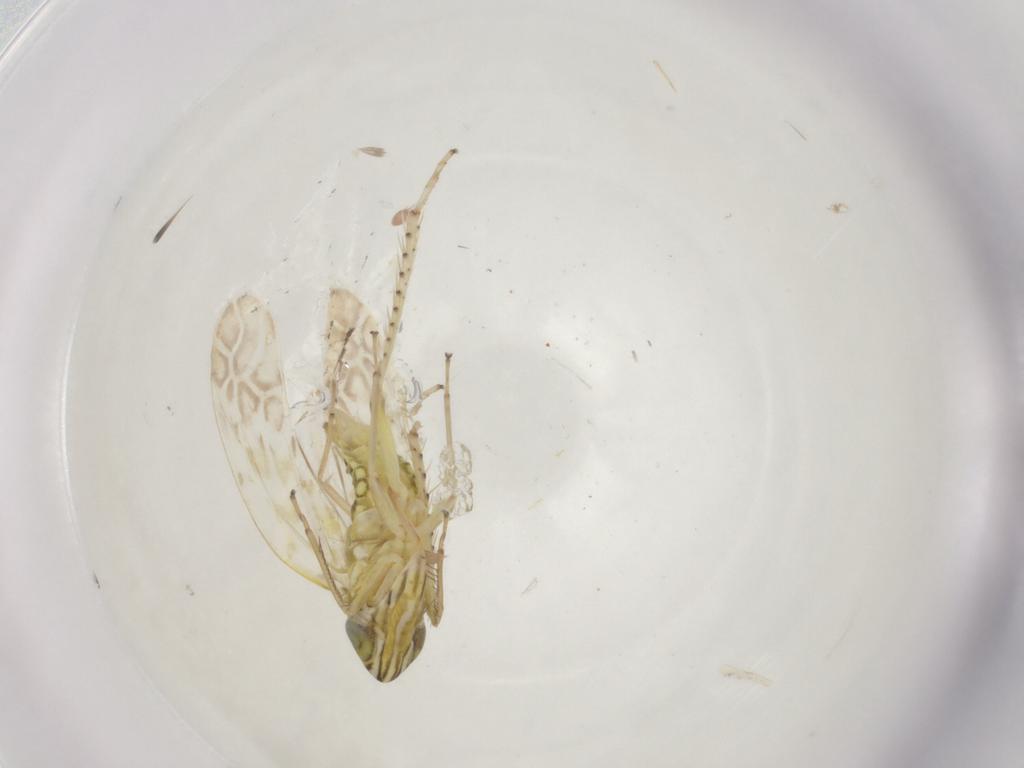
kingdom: Animalia
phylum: Arthropoda
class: Insecta
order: Hemiptera
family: Cicadellidae
